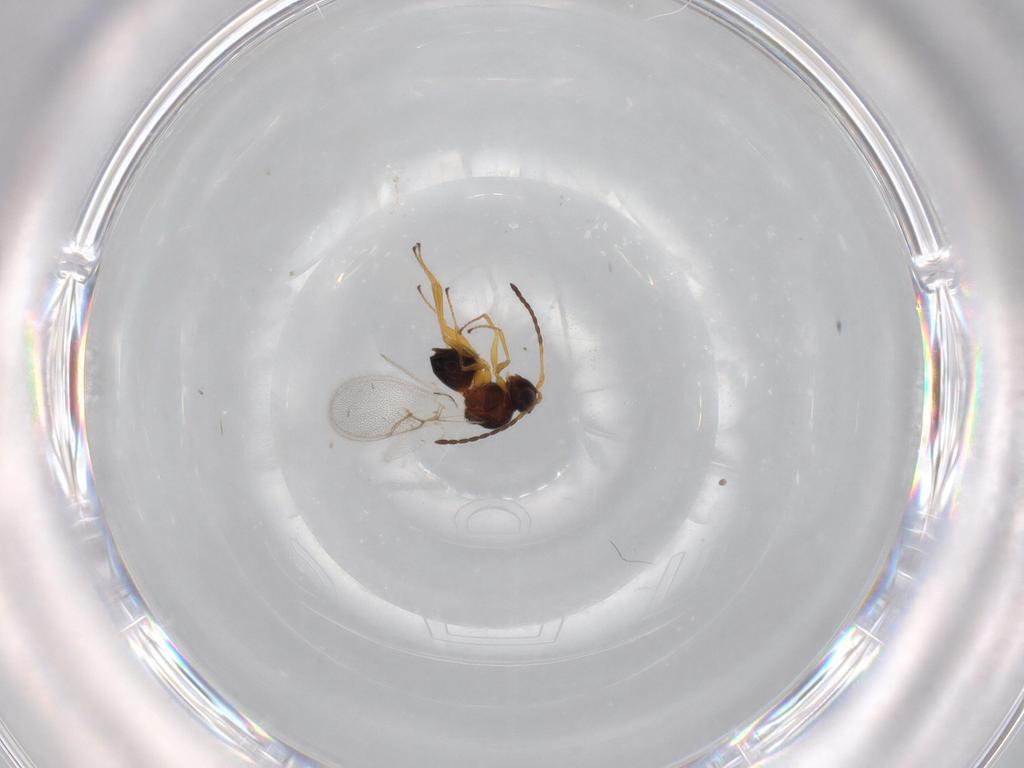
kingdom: Animalia
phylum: Arthropoda
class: Insecta
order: Hymenoptera
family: Figitidae
